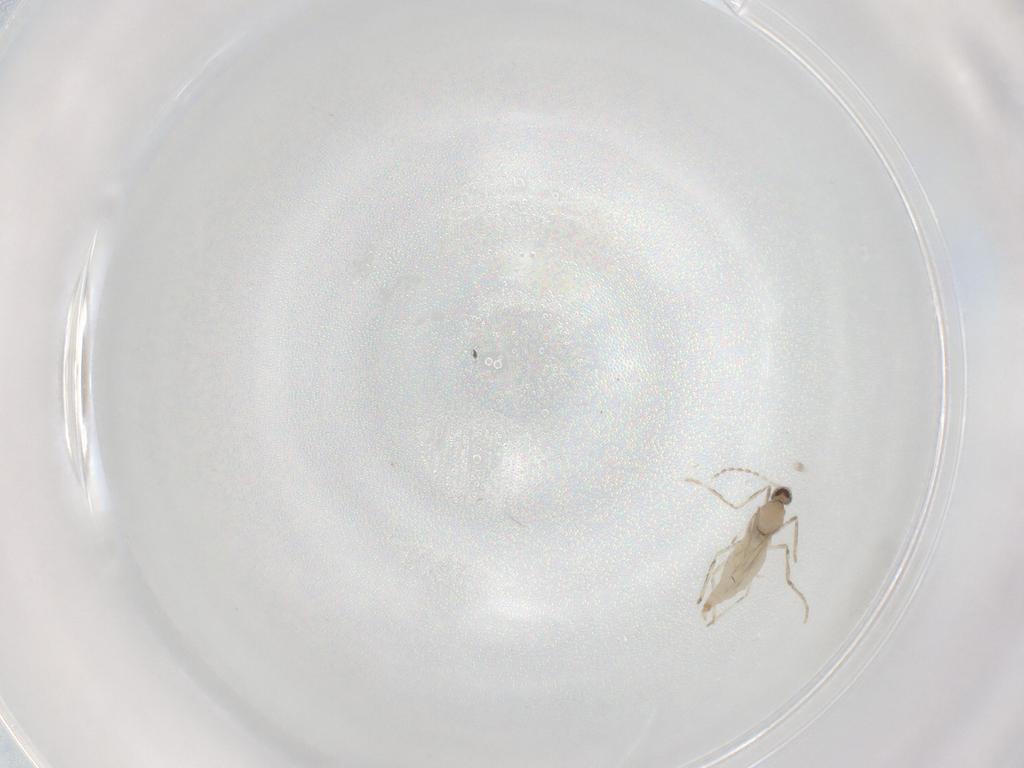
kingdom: Animalia
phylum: Arthropoda
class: Insecta
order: Diptera
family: Cecidomyiidae
